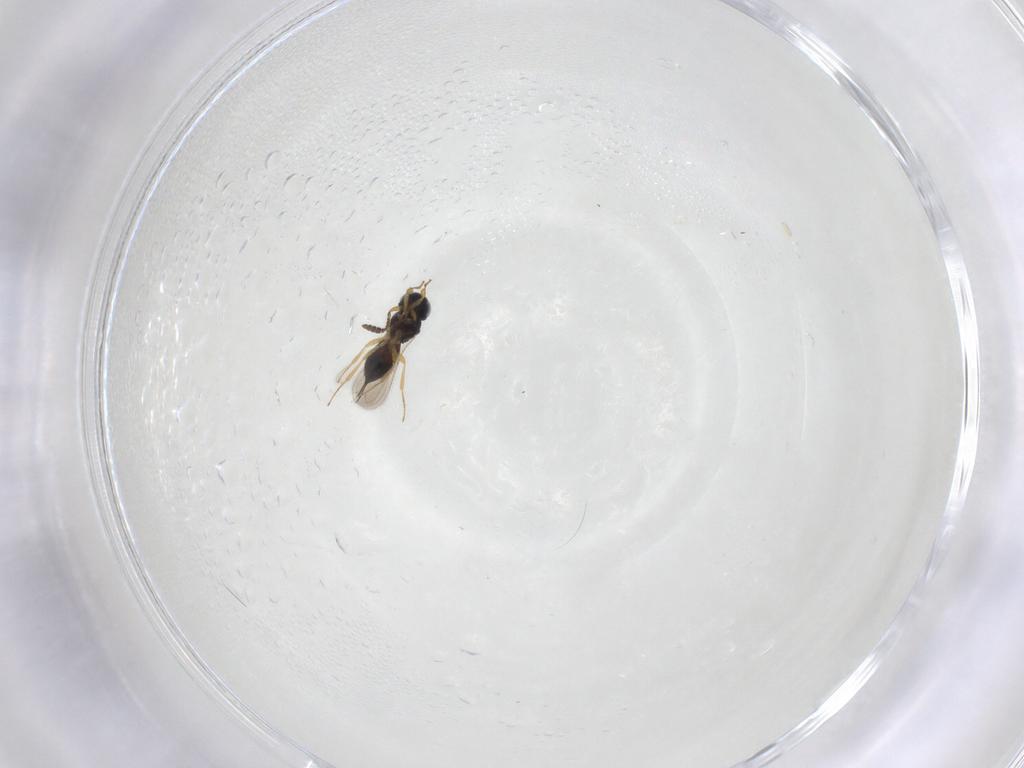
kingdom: Animalia
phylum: Arthropoda
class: Insecta
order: Hymenoptera
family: Scelionidae
